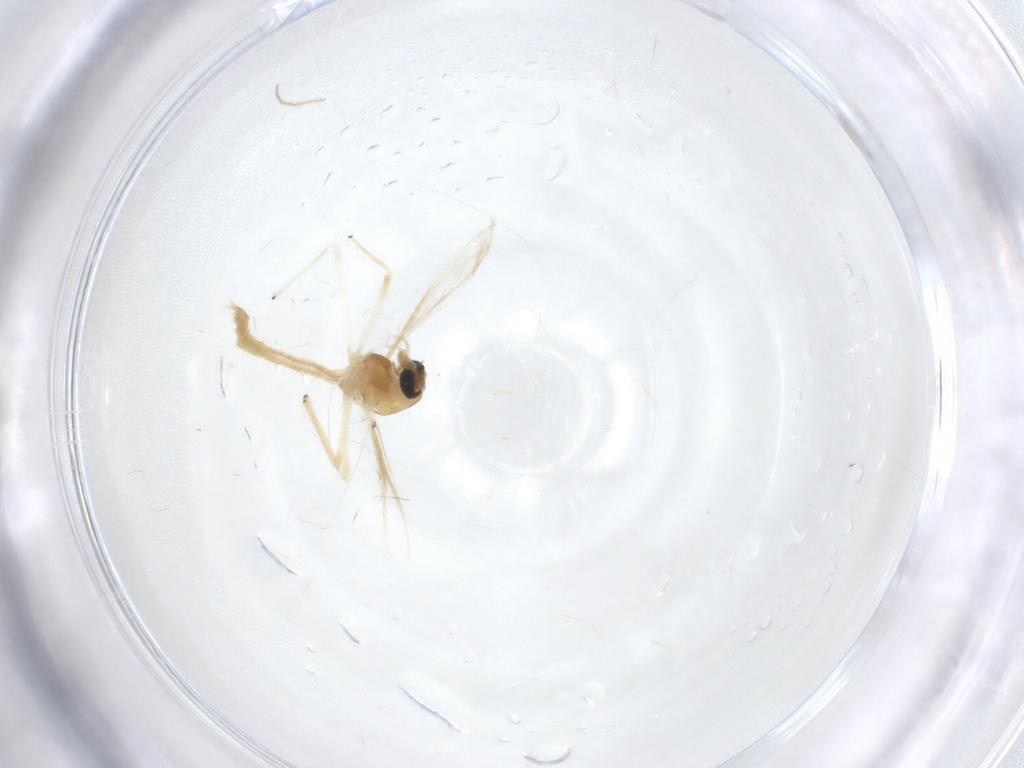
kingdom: Animalia
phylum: Arthropoda
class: Insecta
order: Diptera
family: Chironomidae
